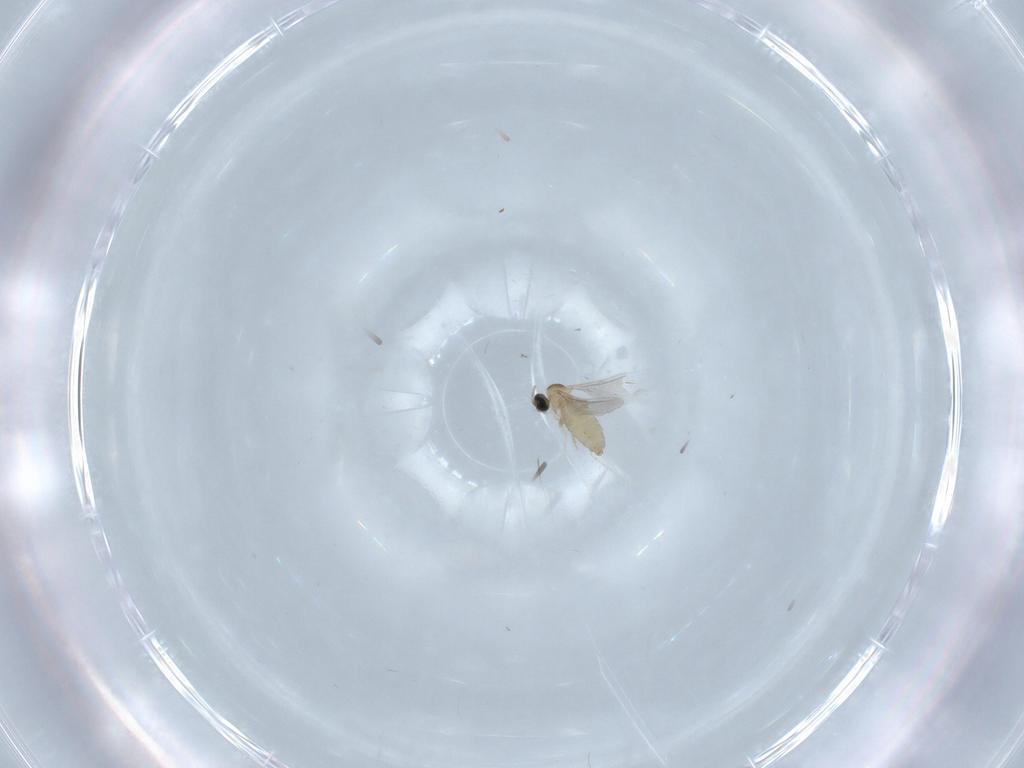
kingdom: Animalia
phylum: Arthropoda
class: Insecta
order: Diptera
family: Cecidomyiidae
